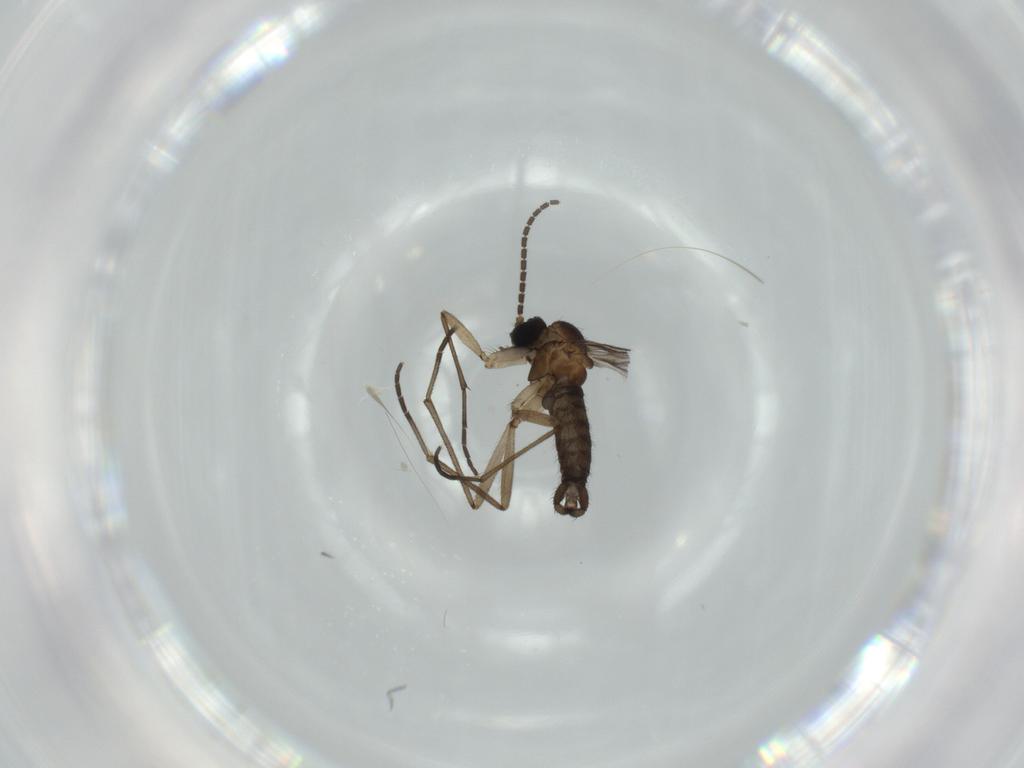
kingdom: Animalia
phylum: Arthropoda
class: Insecta
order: Diptera
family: Sciaridae
